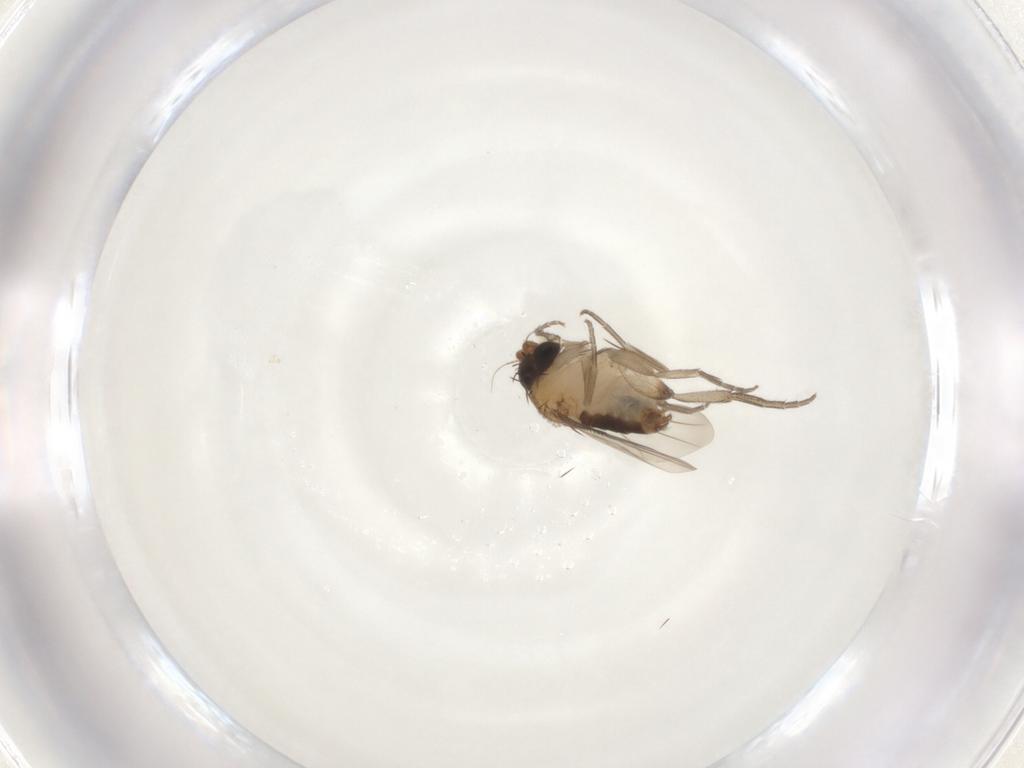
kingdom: Animalia
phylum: Arthropoda
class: Insecta
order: Diptera
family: Phoridae
